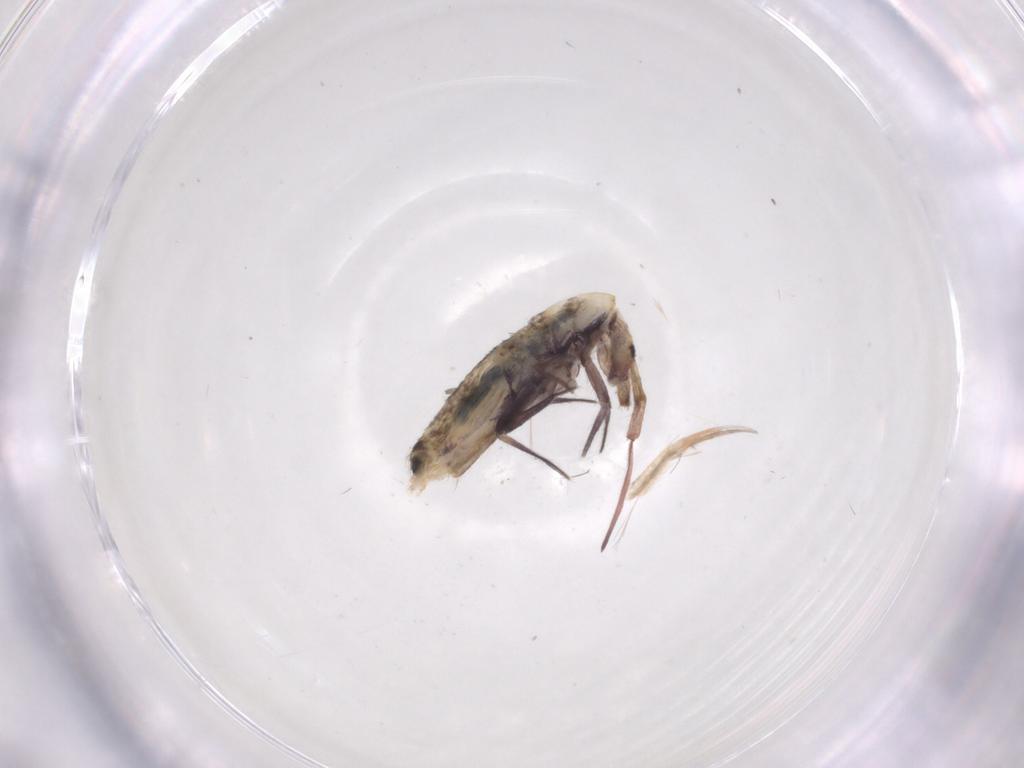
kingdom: Animalia
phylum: Arthropoda
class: Collembola
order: Entomobryomorpha
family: Entomobryidae
